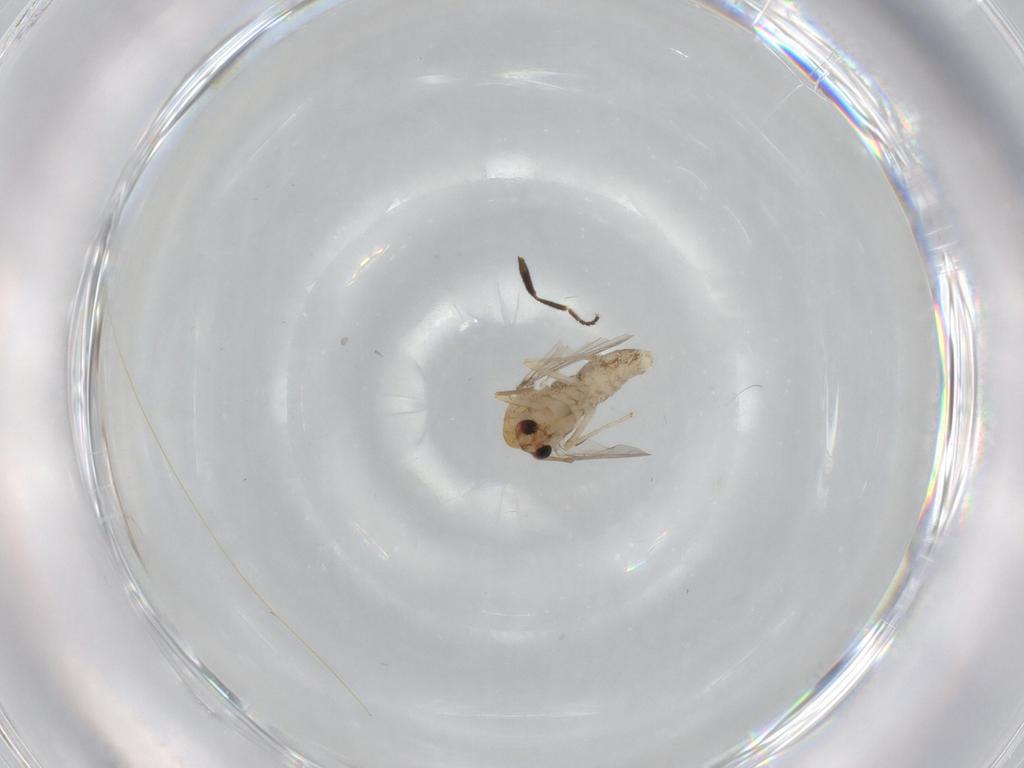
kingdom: Animalia
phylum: Arthropoda
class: Insecta
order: Diptera
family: Chironomidae
